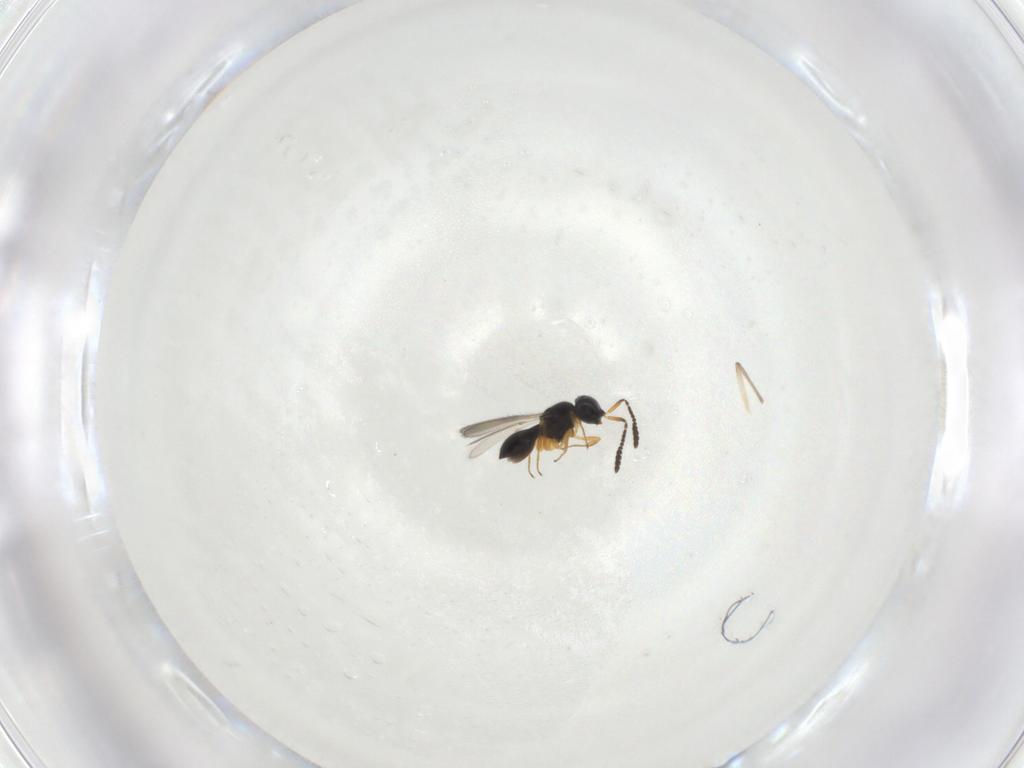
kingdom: Animalia
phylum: Arthropoda
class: Insecta
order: Hymenoptera
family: Scelionidae
